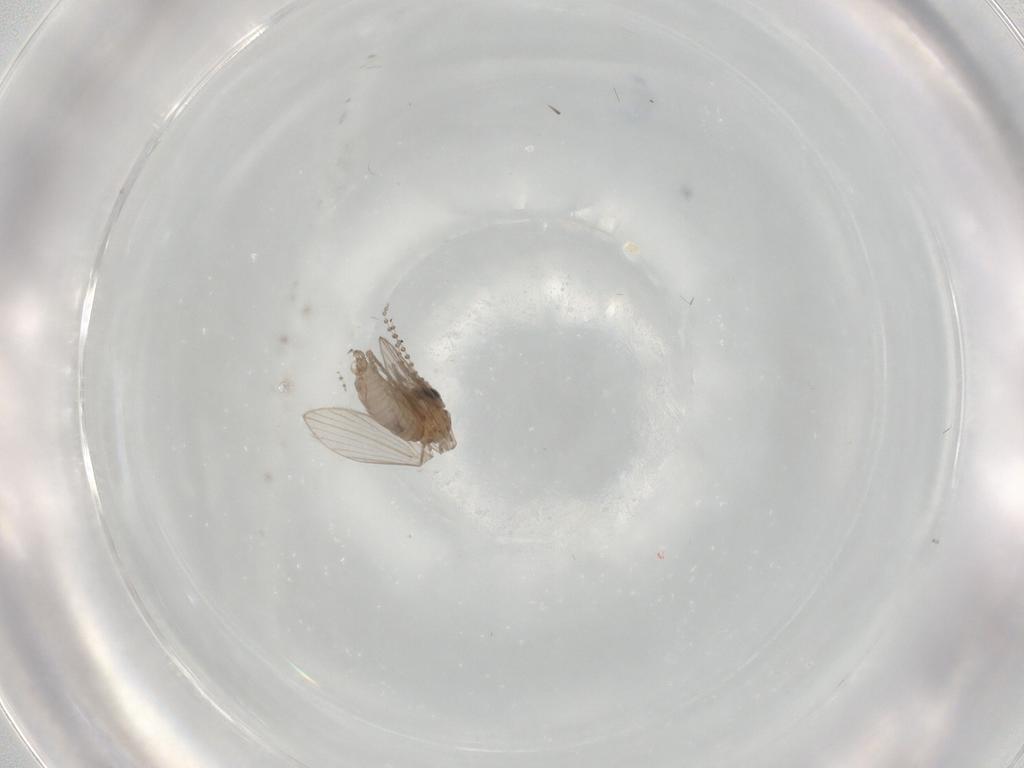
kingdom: Animalia
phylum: Arthropoda
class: Insecta
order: Diptera
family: Psychodidae
